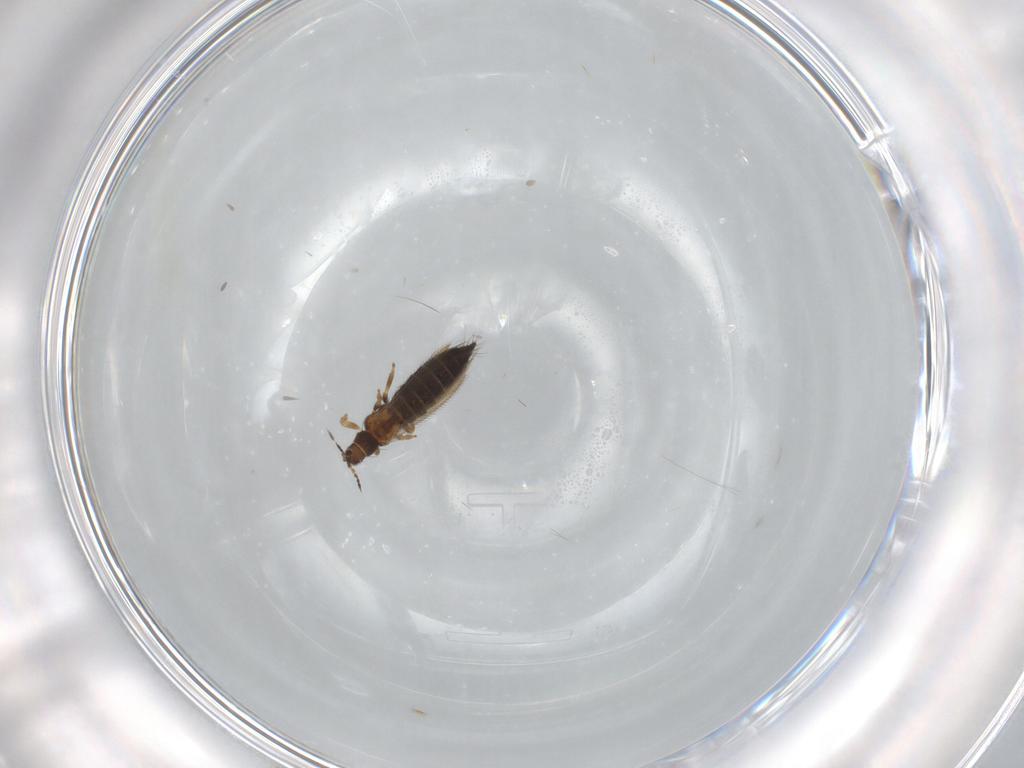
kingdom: Animalia
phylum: Arthropoda
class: Insecta
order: Thysanoptera
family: Thripidae
